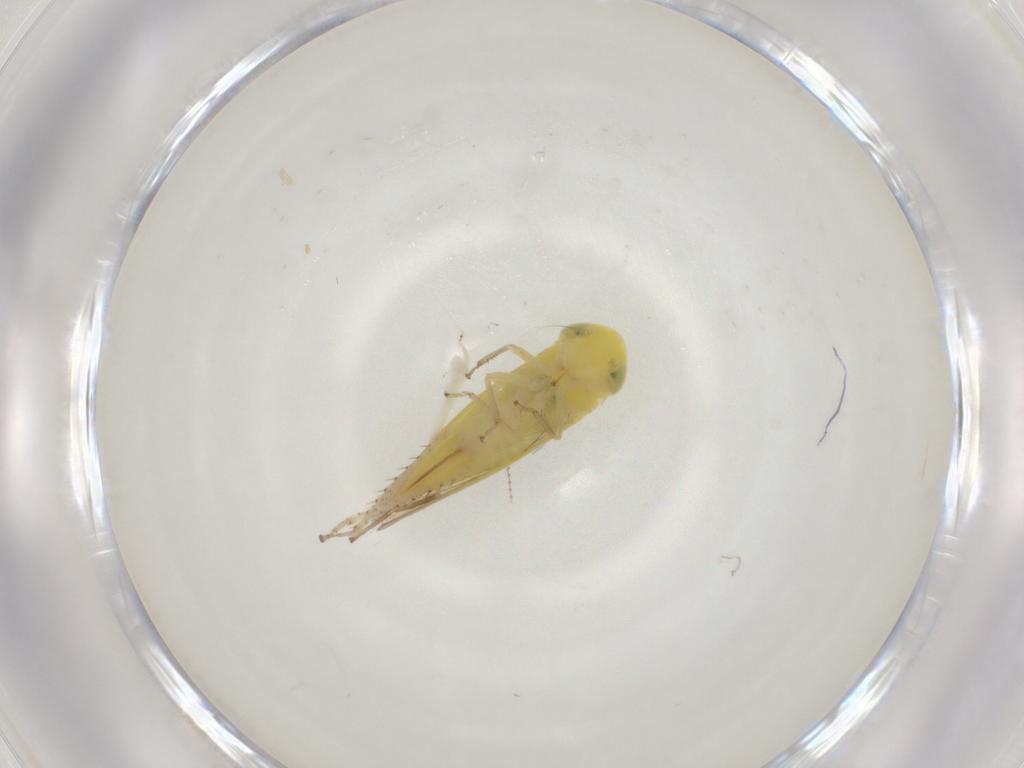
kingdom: Animalia
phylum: Arthropoda
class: Insecta
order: Hemiptera
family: Cicadellidae
